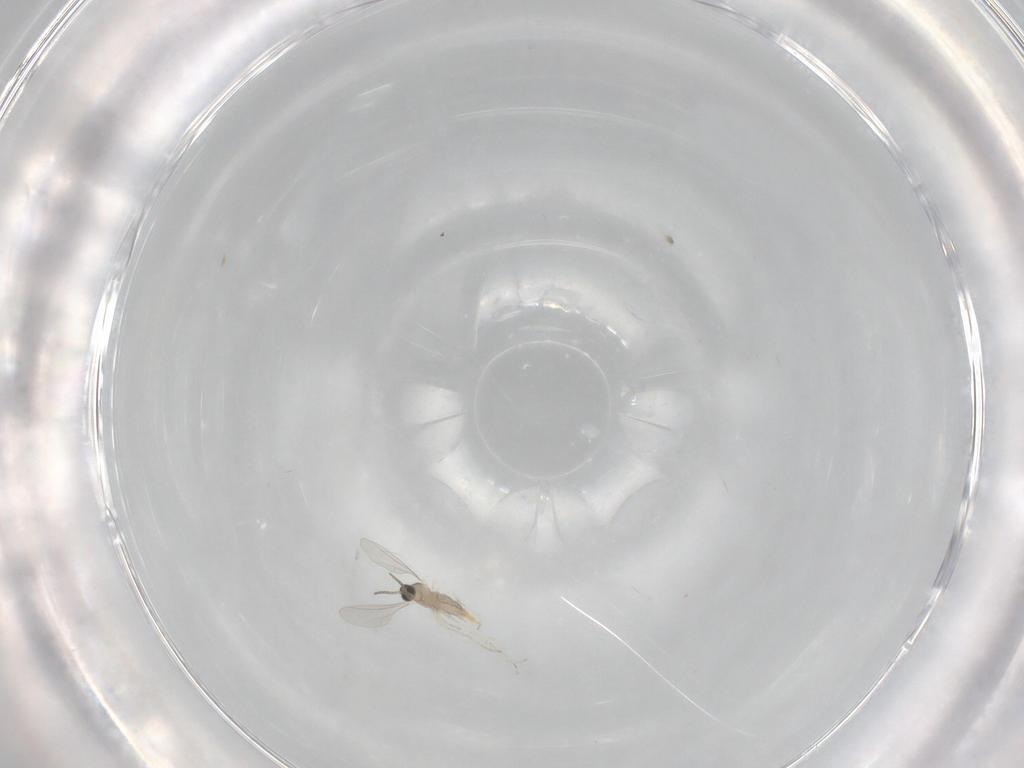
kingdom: Animalia
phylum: Arthropoda
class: Insecta
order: Diptera
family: Cecidomyiidae
